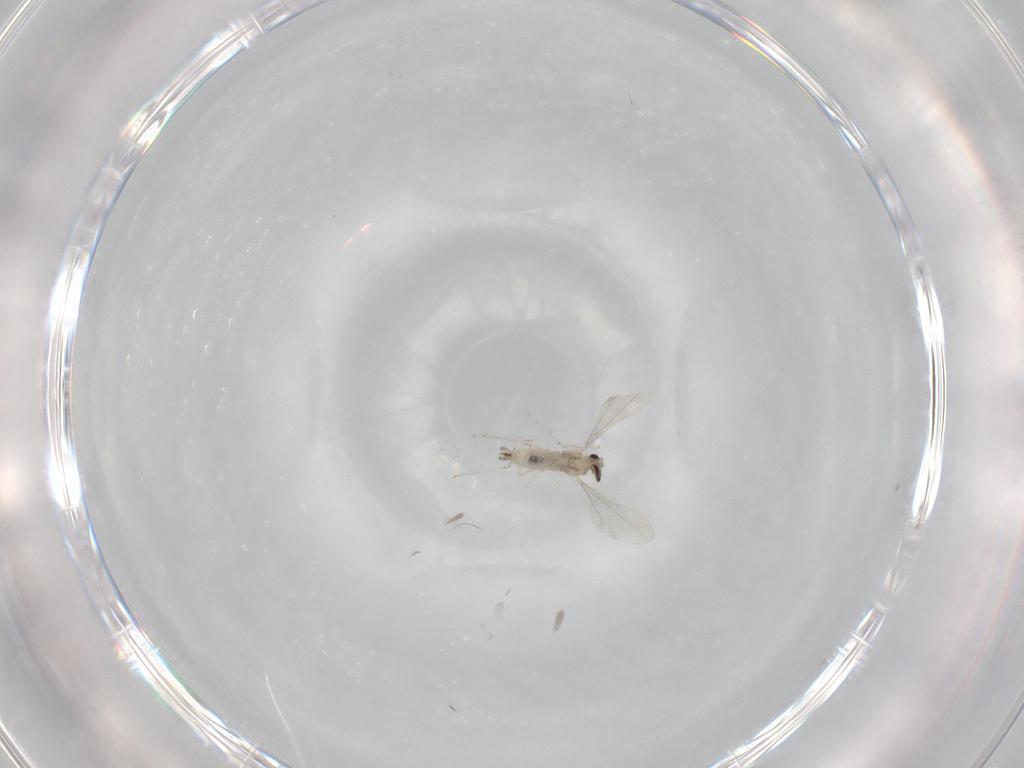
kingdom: Animalia
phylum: Arthropoda
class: Insecta
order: Diptera
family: Cecidomyiidae
